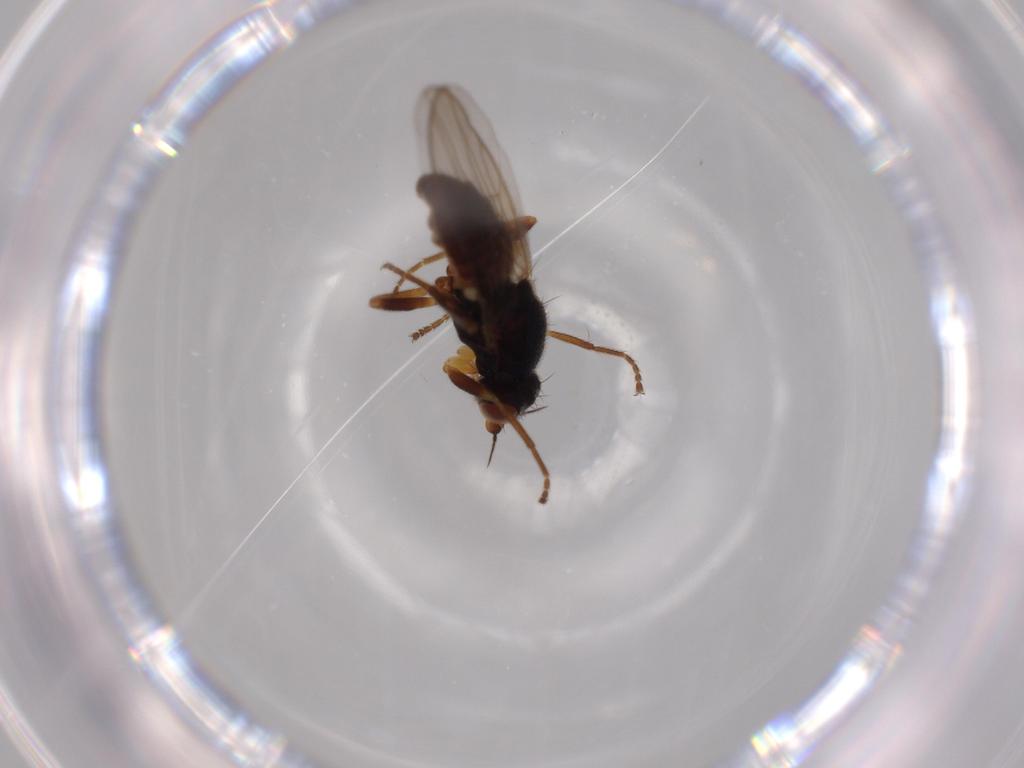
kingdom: Animalia
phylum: Arthropoda
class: Insecta
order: Diptera
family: Chloropidae
